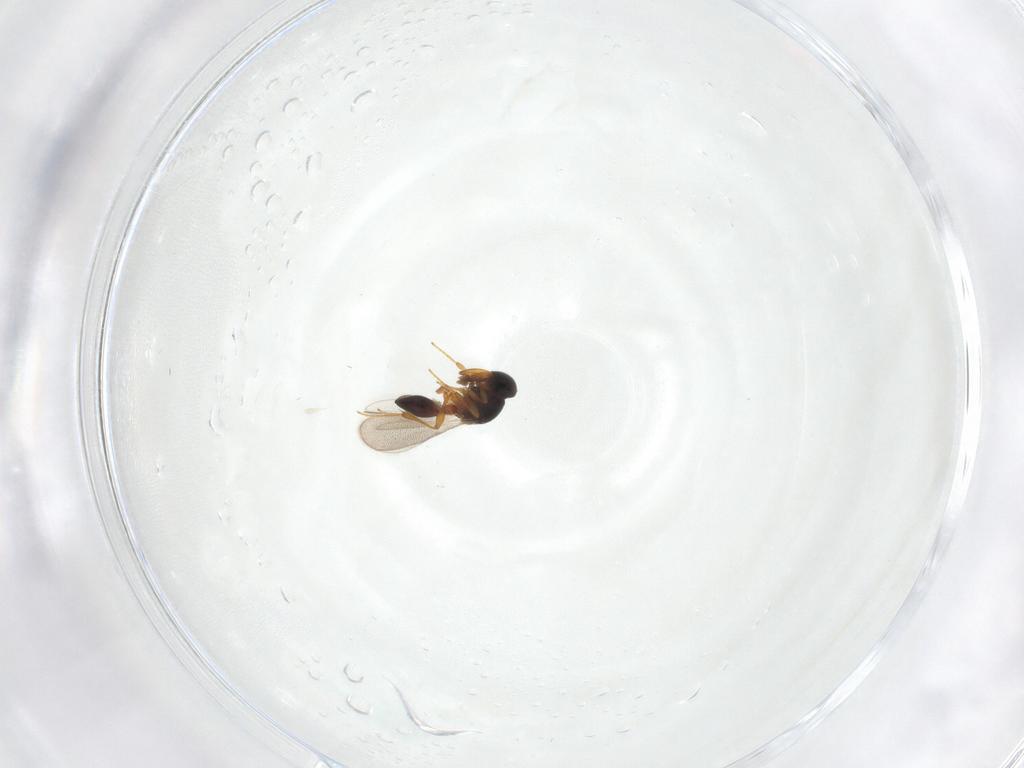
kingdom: Animalia
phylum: Arthropoda
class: Insecta
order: Hymenoptera
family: Platygastridae
